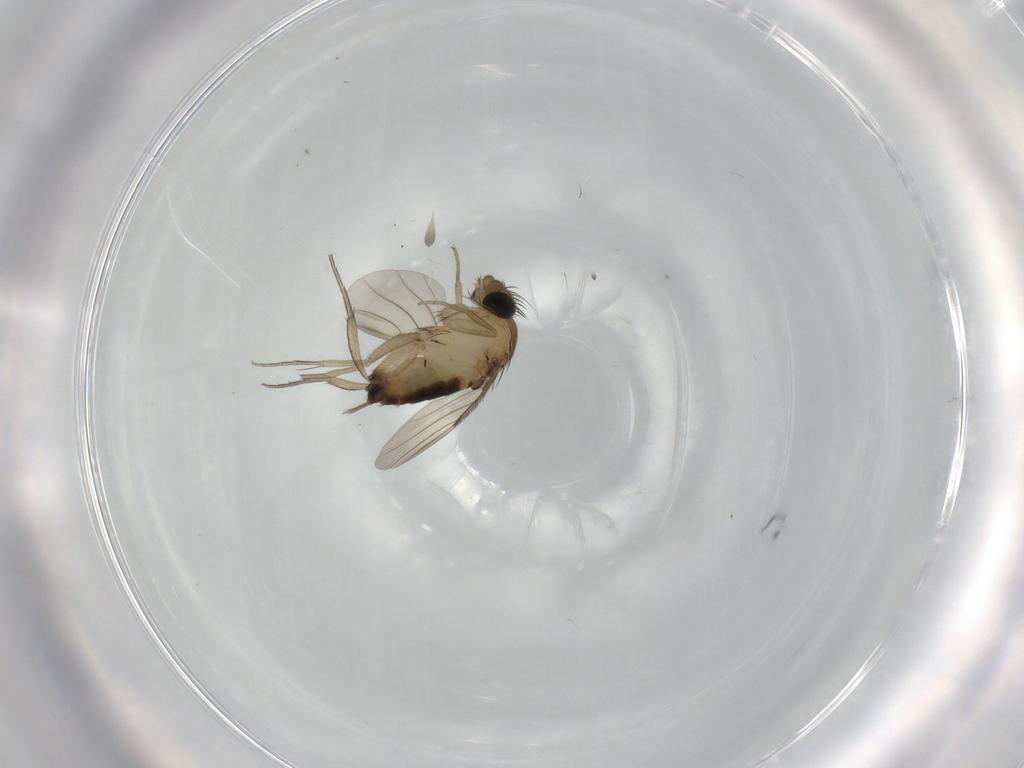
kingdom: Animalia
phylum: Arthropoda
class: Insecta
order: Diptera
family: Phoridae
